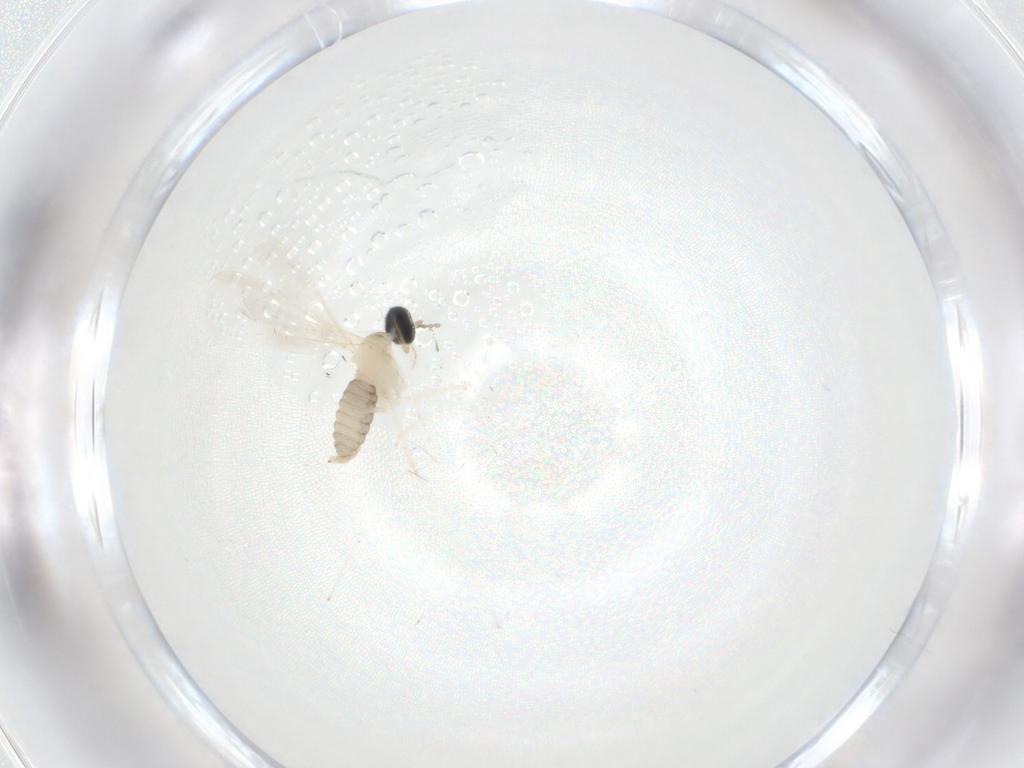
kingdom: Animalia
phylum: Arthropoda
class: Insecta
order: Diptera
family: Cecidomyiidae
